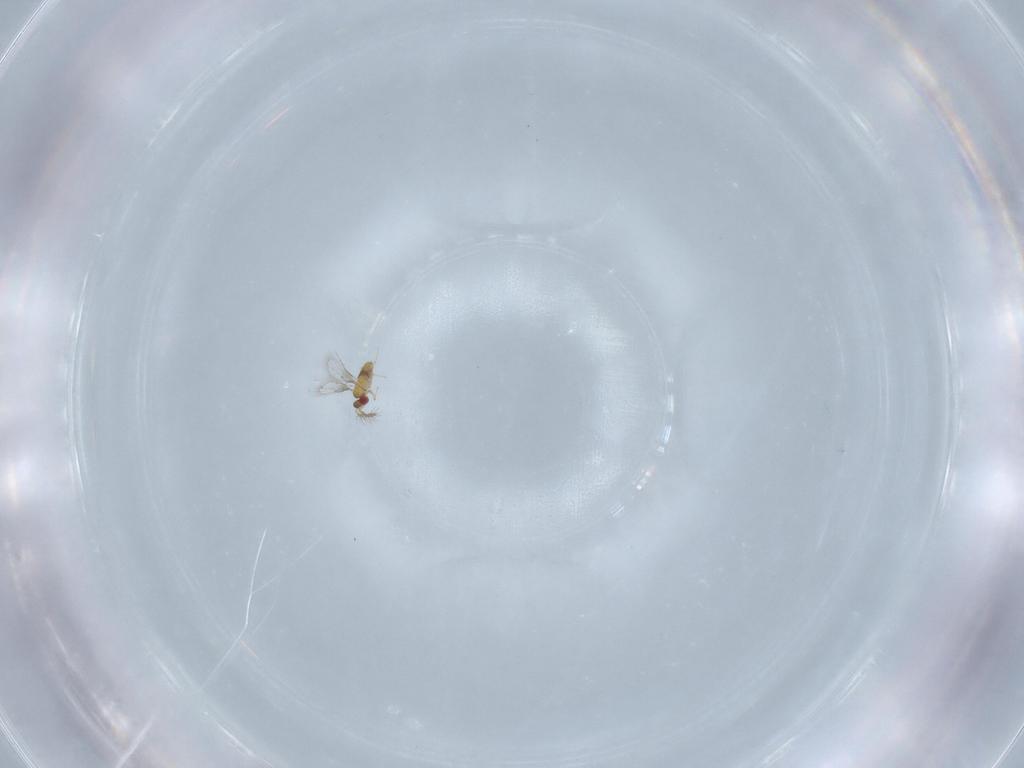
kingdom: Animalia
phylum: Arthropoda
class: Insecta
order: Hymenoptera
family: Trichogrammatidae
